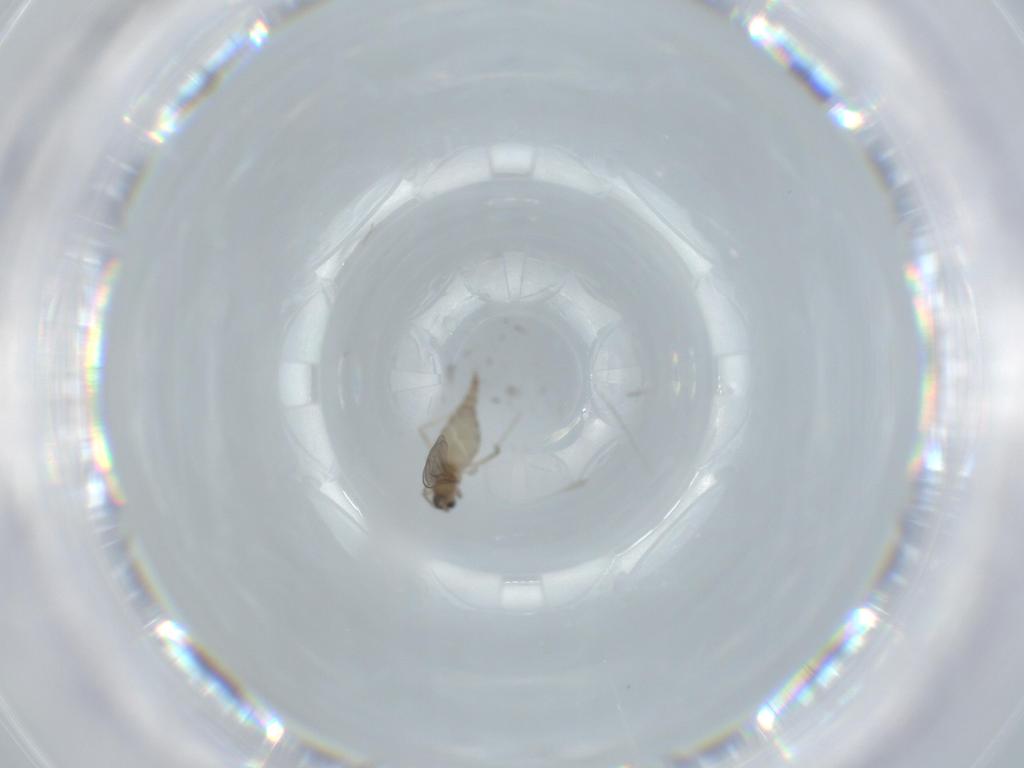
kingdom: Animalia
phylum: Arthropoda
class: Insecta
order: Diptera
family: Cecidomyiidae
